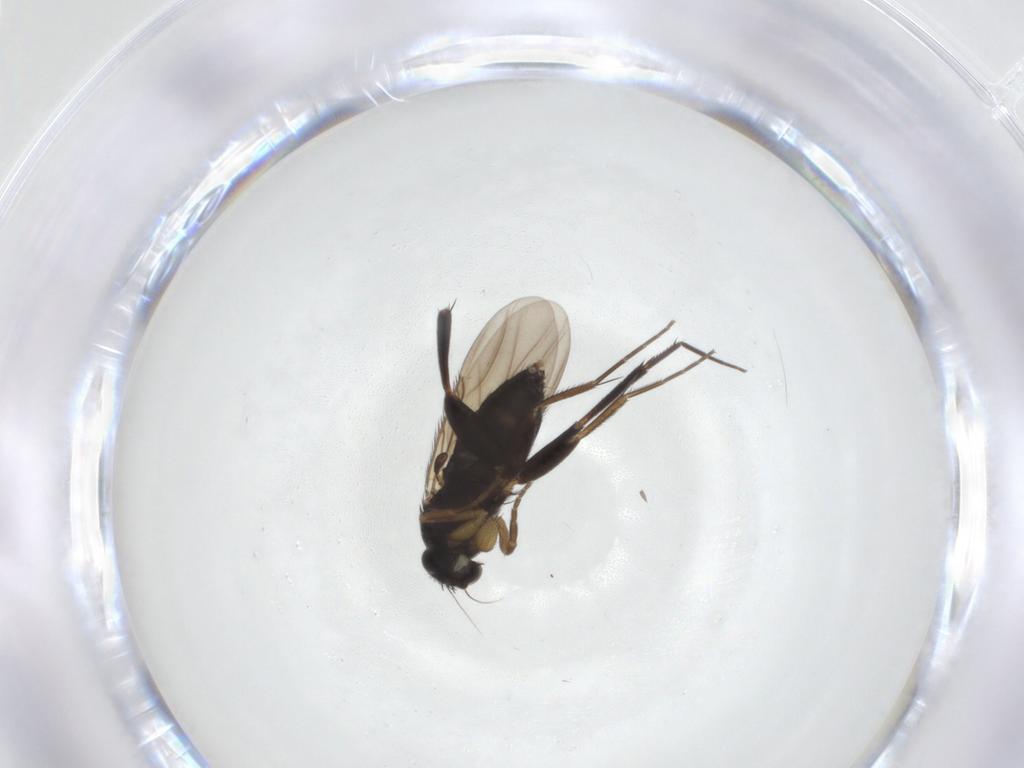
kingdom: Animalia
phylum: Arthropoda
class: Insecta
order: Diptera
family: Phoridae
